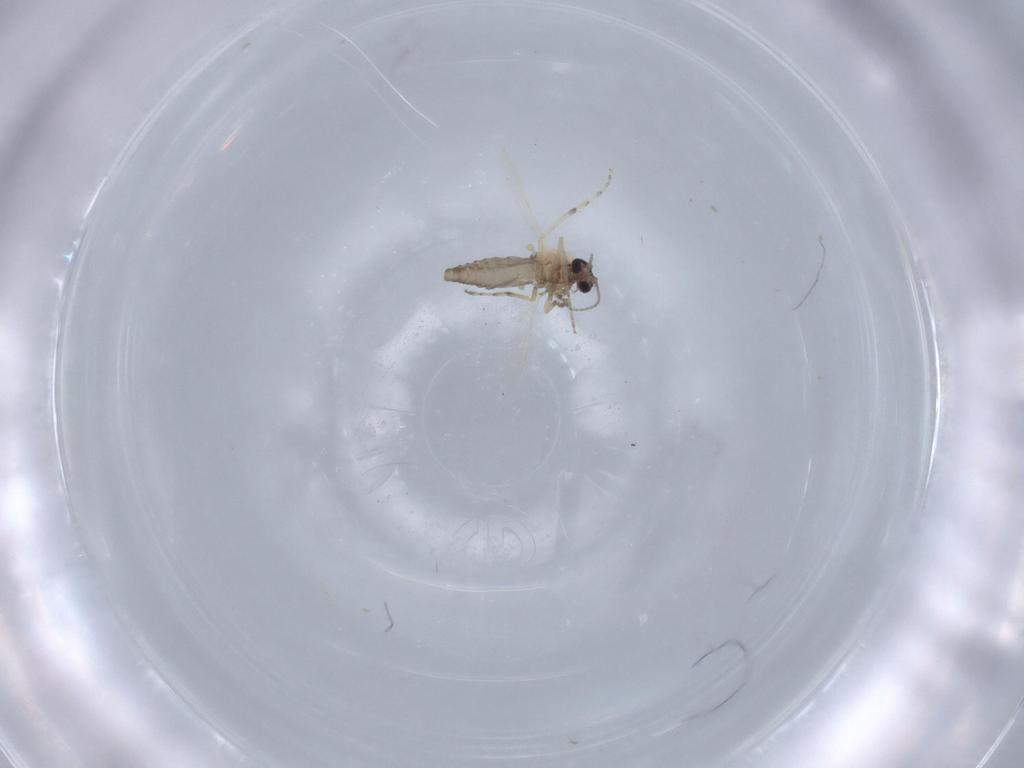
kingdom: Animalia
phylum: Arthropoda
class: Insecta
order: Diptera
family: Ceratopogonidae
